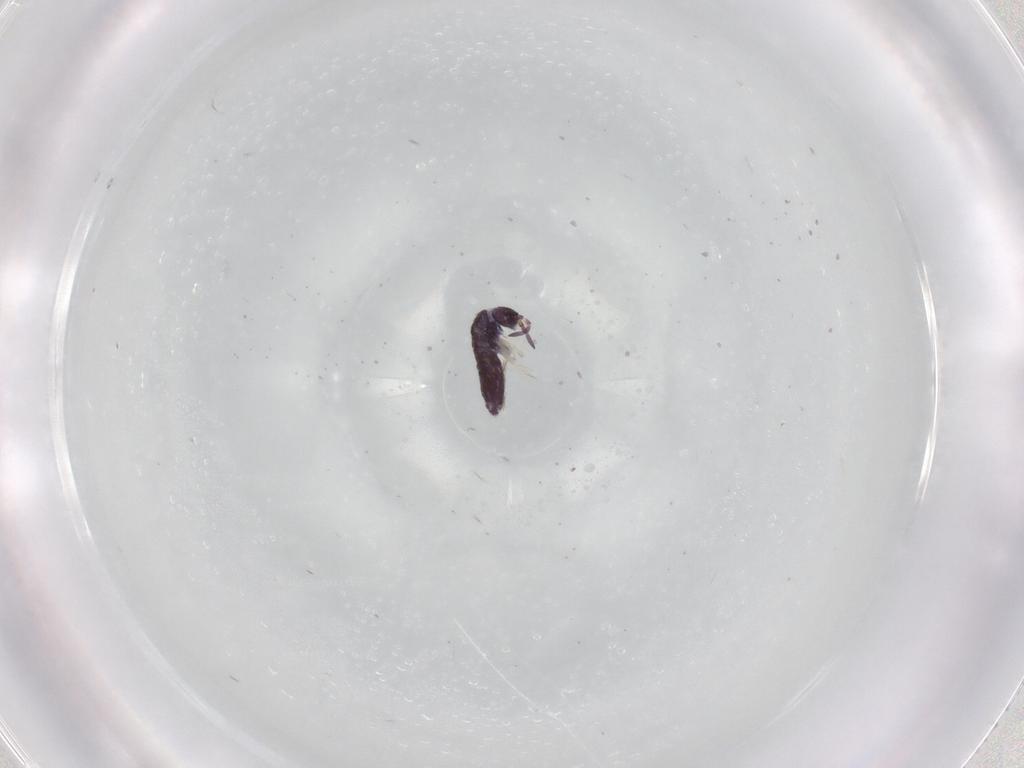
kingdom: Animalia
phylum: Arthropoda
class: Collembola
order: Entomobryomorpha
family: Entomobryidae
